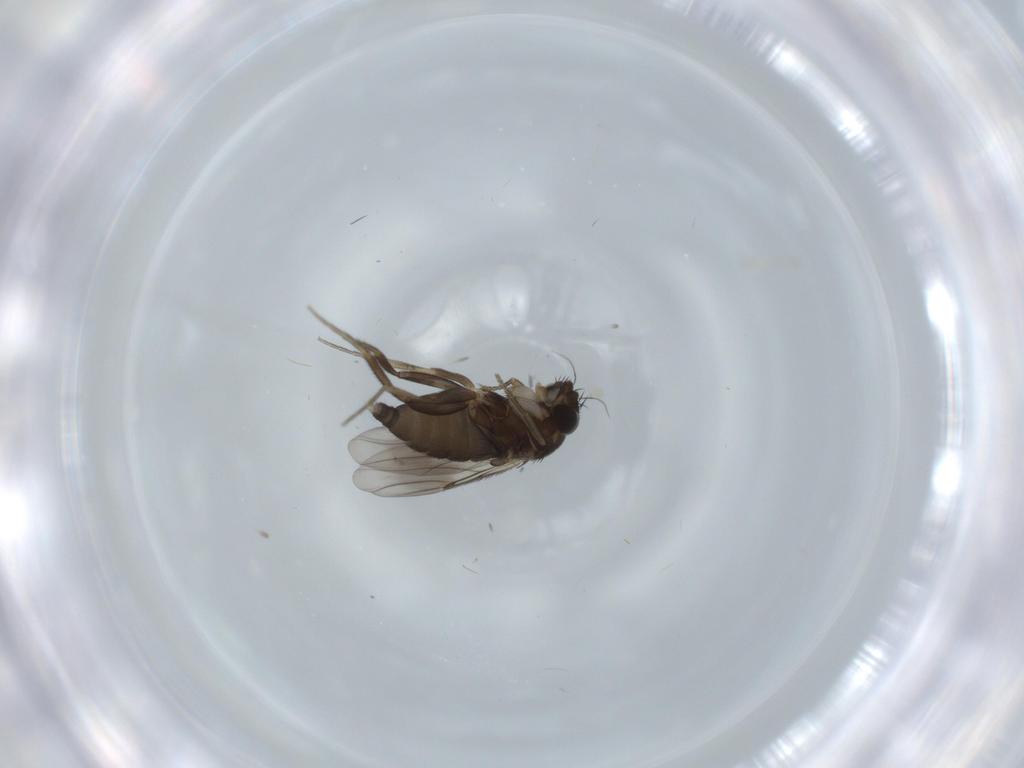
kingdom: Animalia
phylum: Arthropoda
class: Insecta
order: Diptera
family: Phoridae
